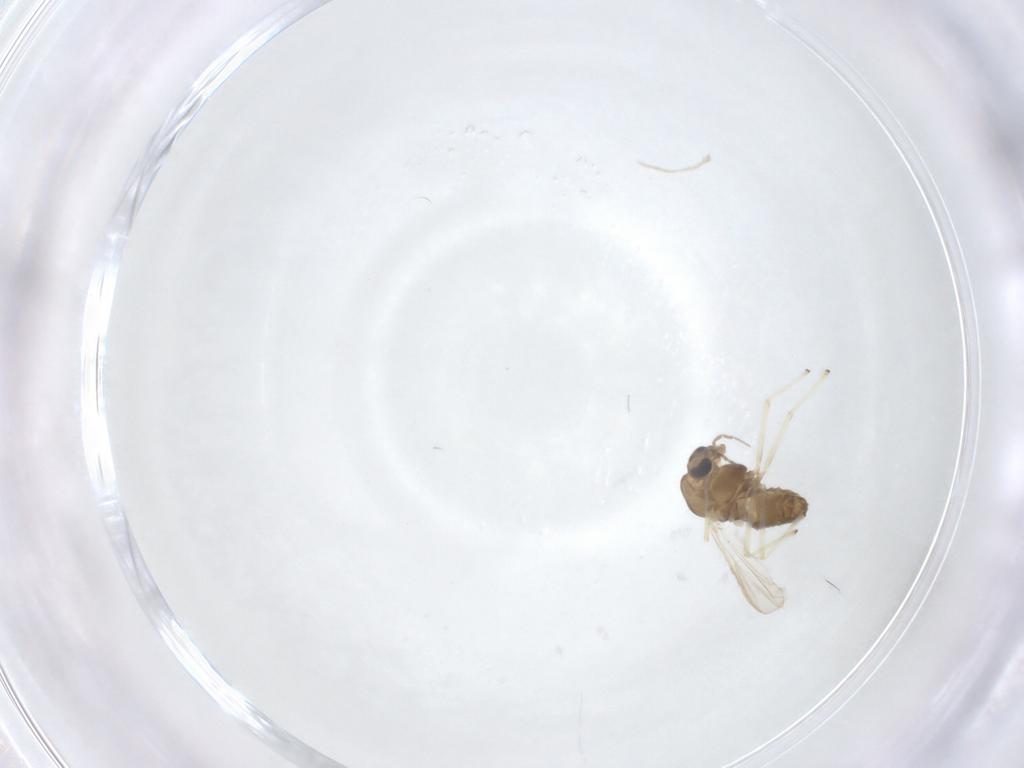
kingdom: Animalia
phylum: Arthropoda
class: Insecta
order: Diptera
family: Chironomidae
